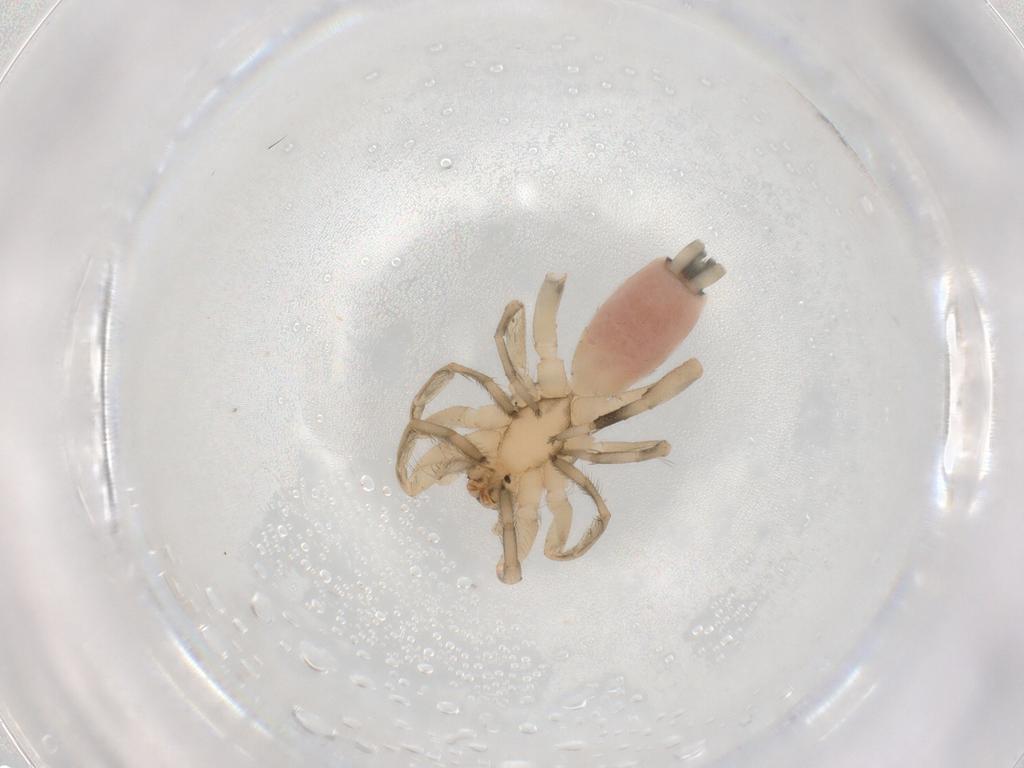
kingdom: Animalia
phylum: Arthropoda
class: Arachnida
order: Araneae
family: Gnaphosidae
